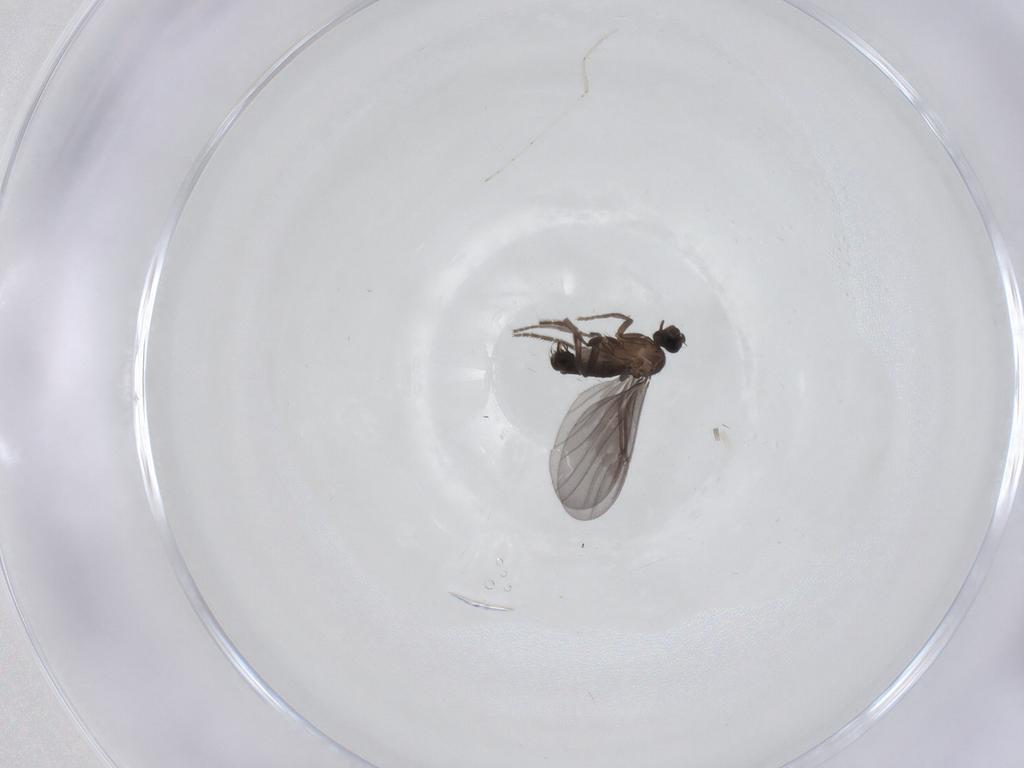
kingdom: Animalia
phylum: Arthropoda
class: Insecta
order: Diptera
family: Phoridae
